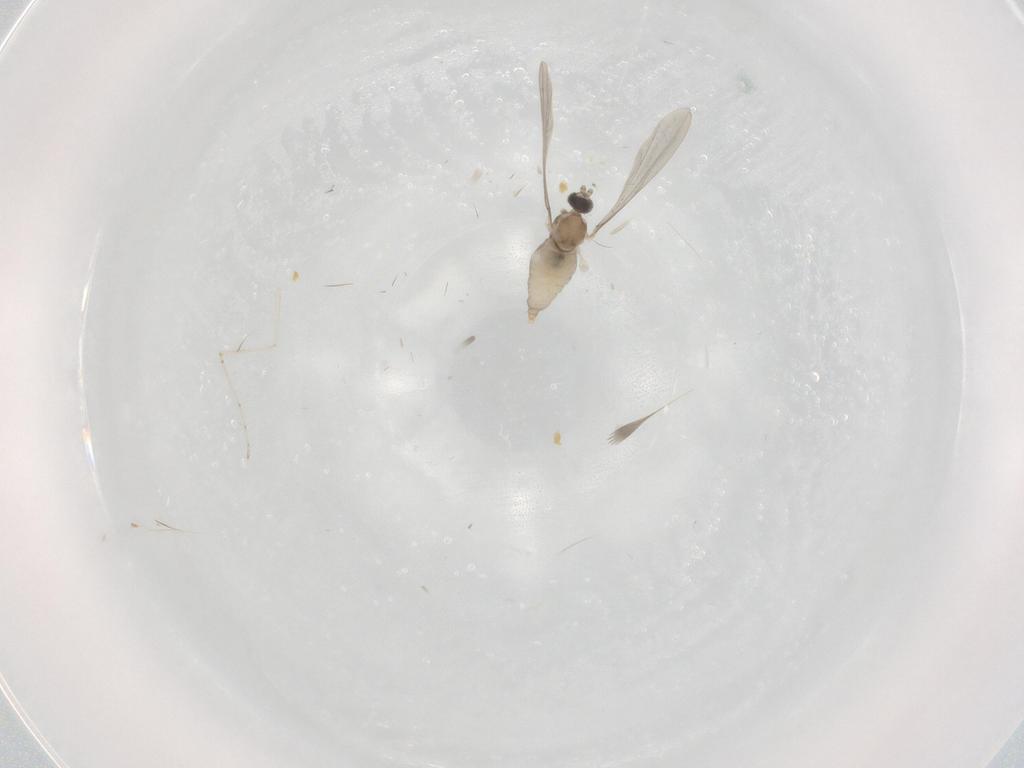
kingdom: Animalia
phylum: Arthropoda
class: Insecta
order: Diptera
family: Cecidomyiidae
